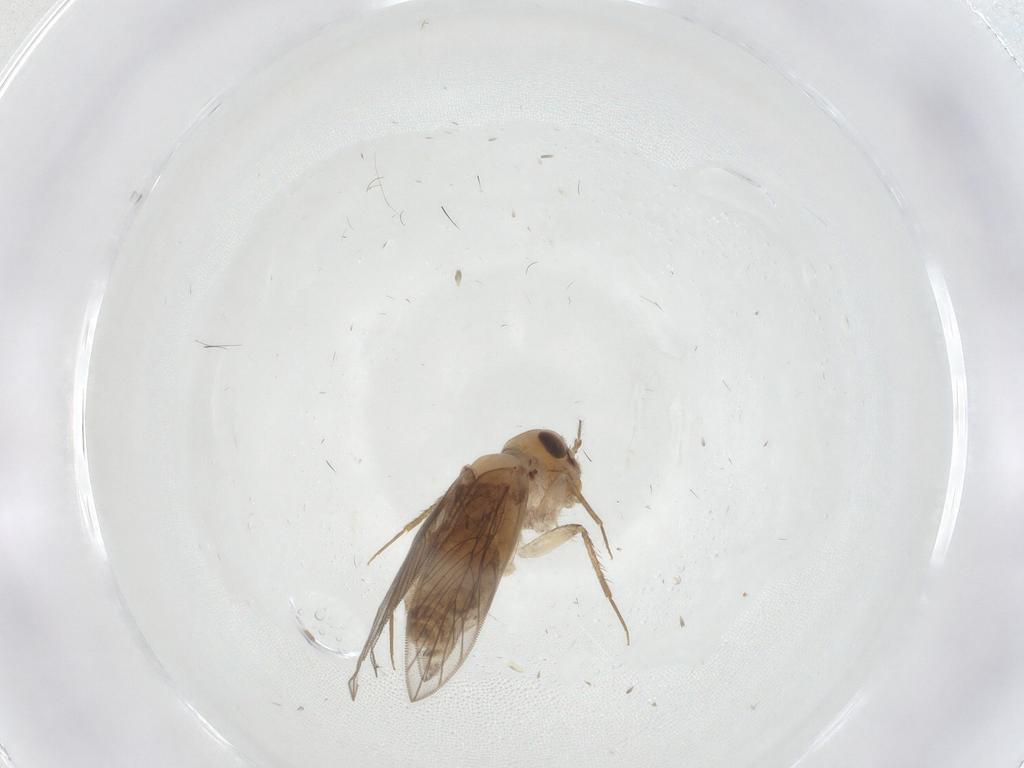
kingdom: Animalia
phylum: Arthropoda
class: Insecta
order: Psocodea
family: Lepidopsocidae
